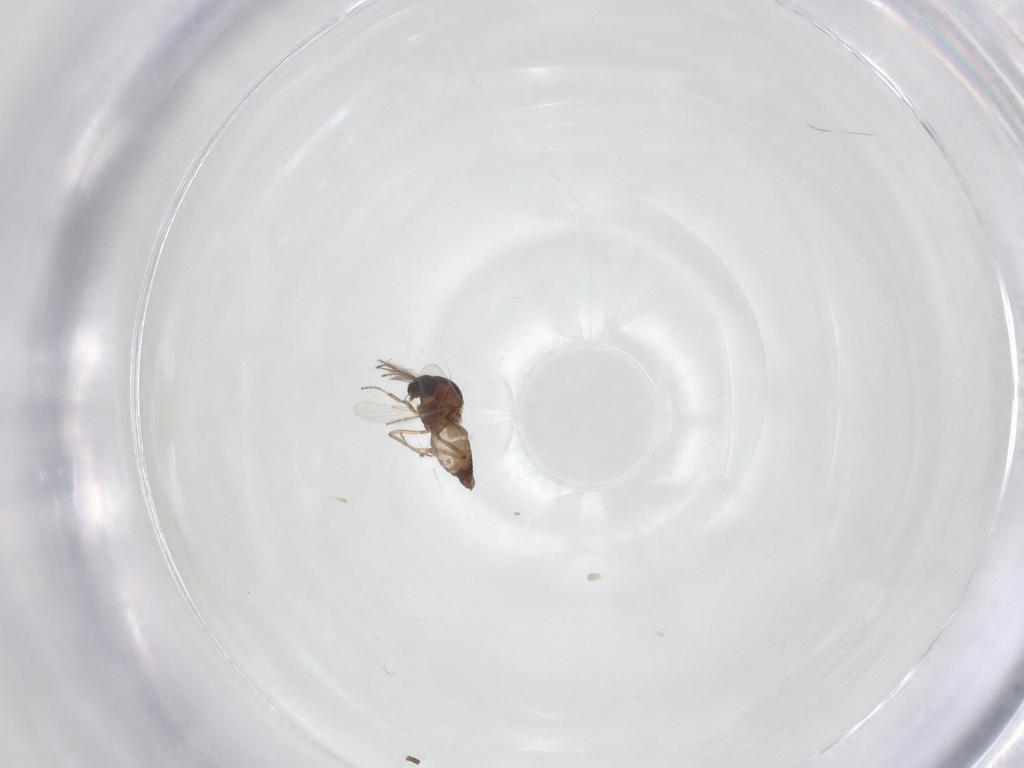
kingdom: Animalia
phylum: Arthropoda
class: Insecta
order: Diptera
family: Ceratopogonidae
